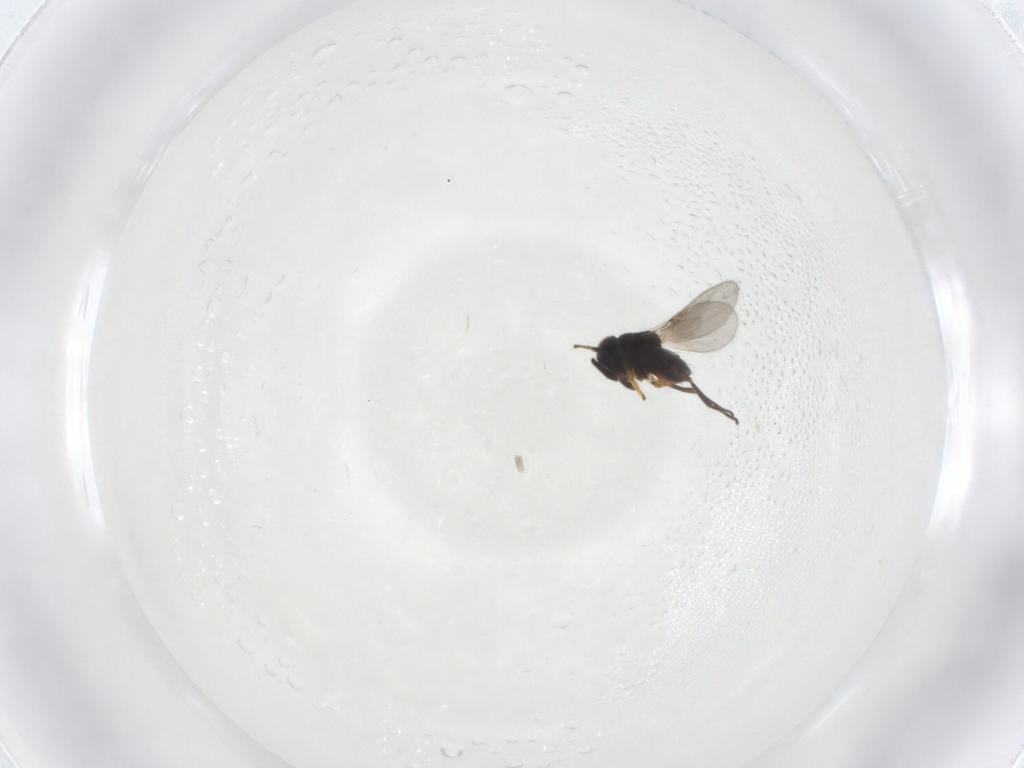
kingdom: Animalia
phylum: Arthropoda
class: Insecta
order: Hymenoptera
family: Encyrtidae
